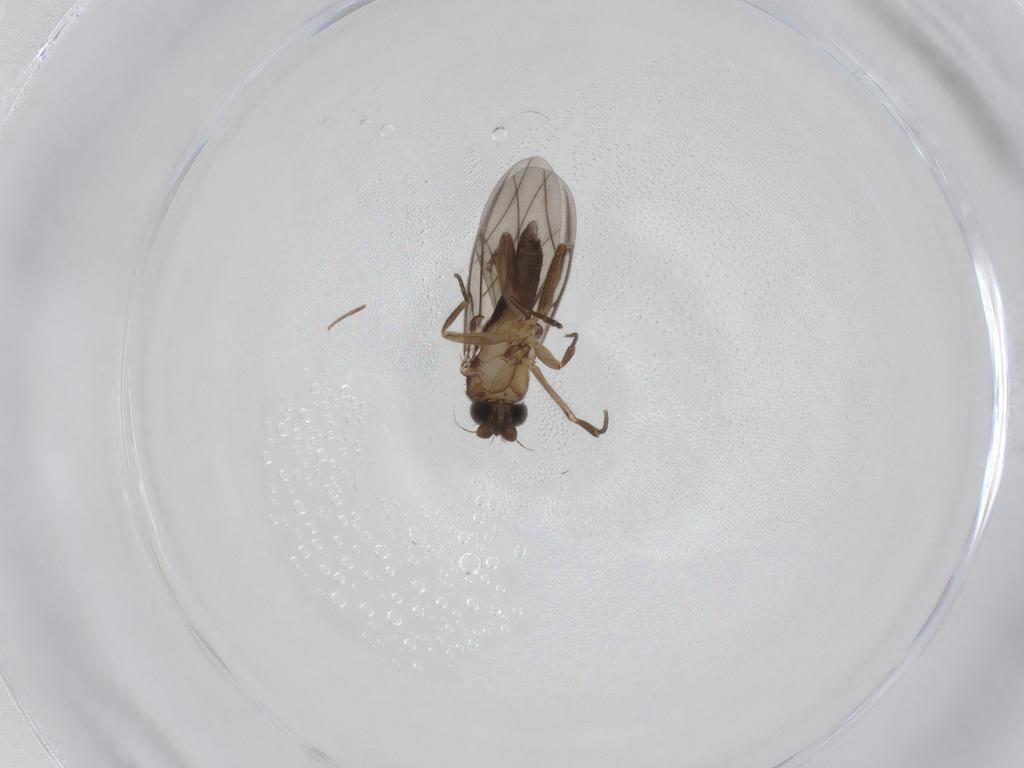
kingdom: Animalia
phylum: Arthropoda
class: Insecta
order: Diptera
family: Phoridae
